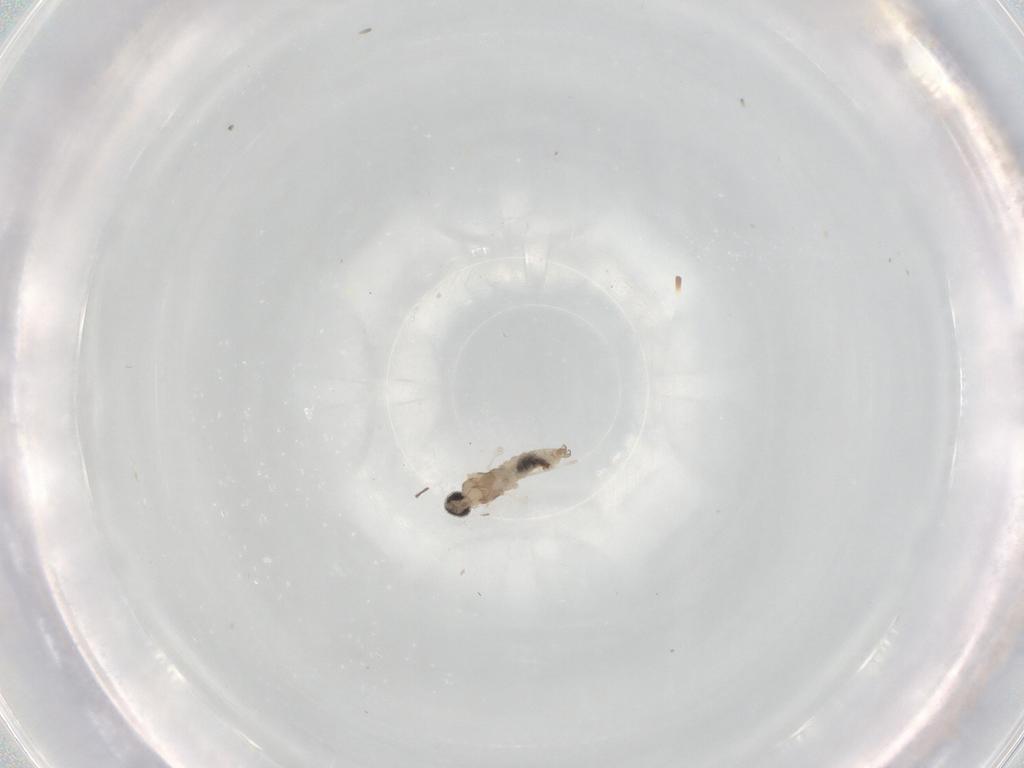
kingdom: Animalia
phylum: Arthropoda
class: Insecta
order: Diptera
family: Cecidomyiidae
